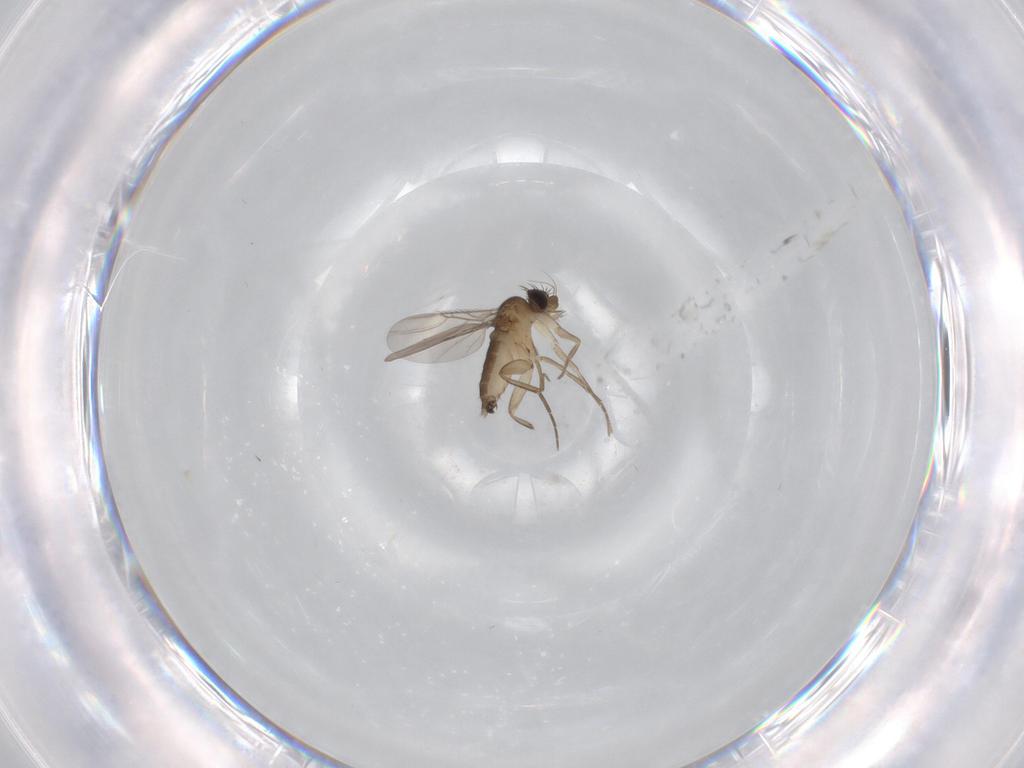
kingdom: Animalia
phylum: Arthropoda
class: Insecta
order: Diptera
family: Phoridae
